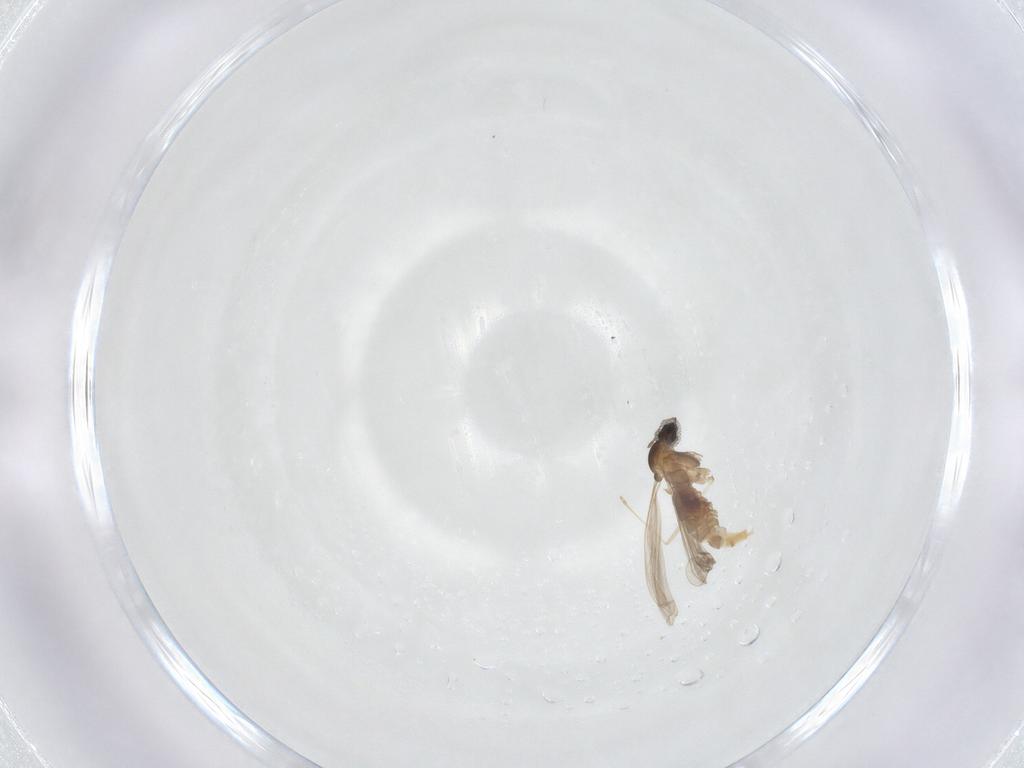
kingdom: Animalia
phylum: Arthropoda
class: Insecta
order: Diptera
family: Cecidomyiidae
